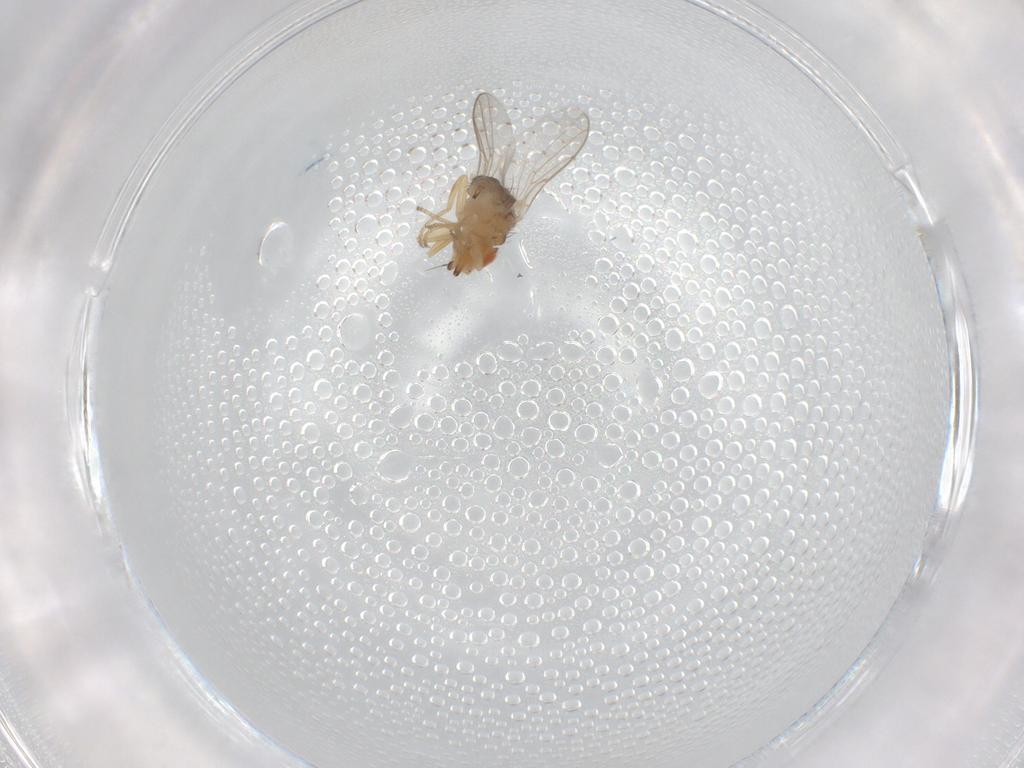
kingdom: Animalia
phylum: Arthropoda
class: Insecta
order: Diptera
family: Chloropidae
